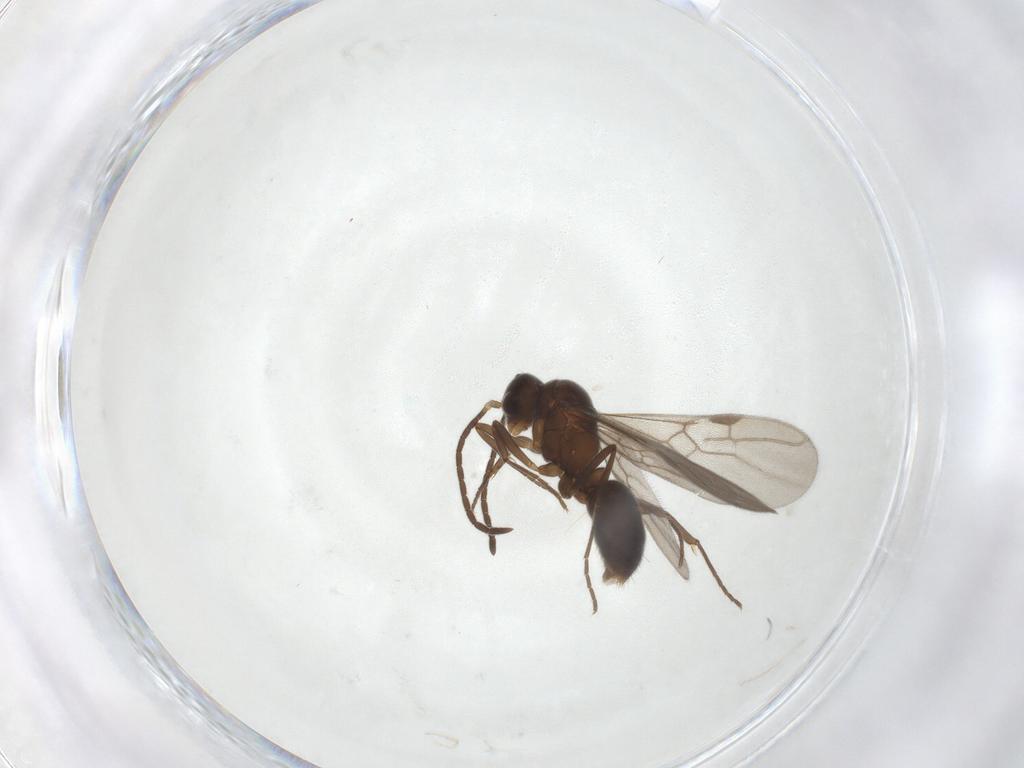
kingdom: Animalia
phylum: Arthropoda
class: Insecta
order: Hymenoptera
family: Formicidae
